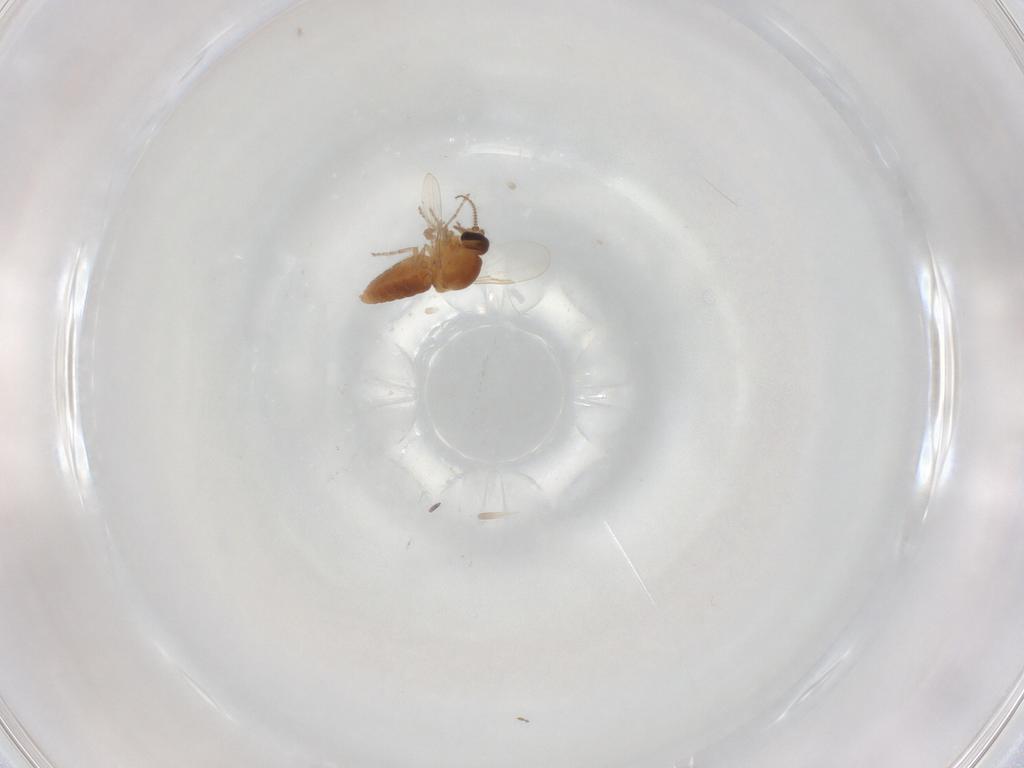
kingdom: Animalia
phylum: Arthropoda
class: Insecta
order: Diptera
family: Ceratopogonidae
